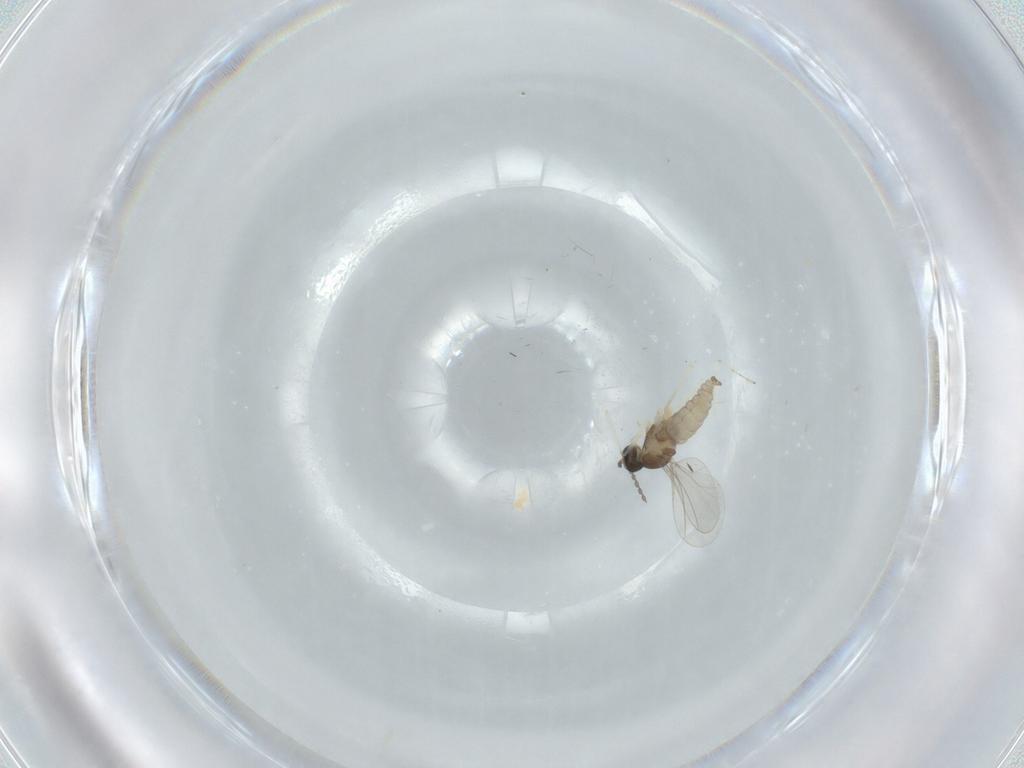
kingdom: Animalia
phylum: Arthropoda
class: Insecta
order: Diptera
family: Cecidomyiidae
